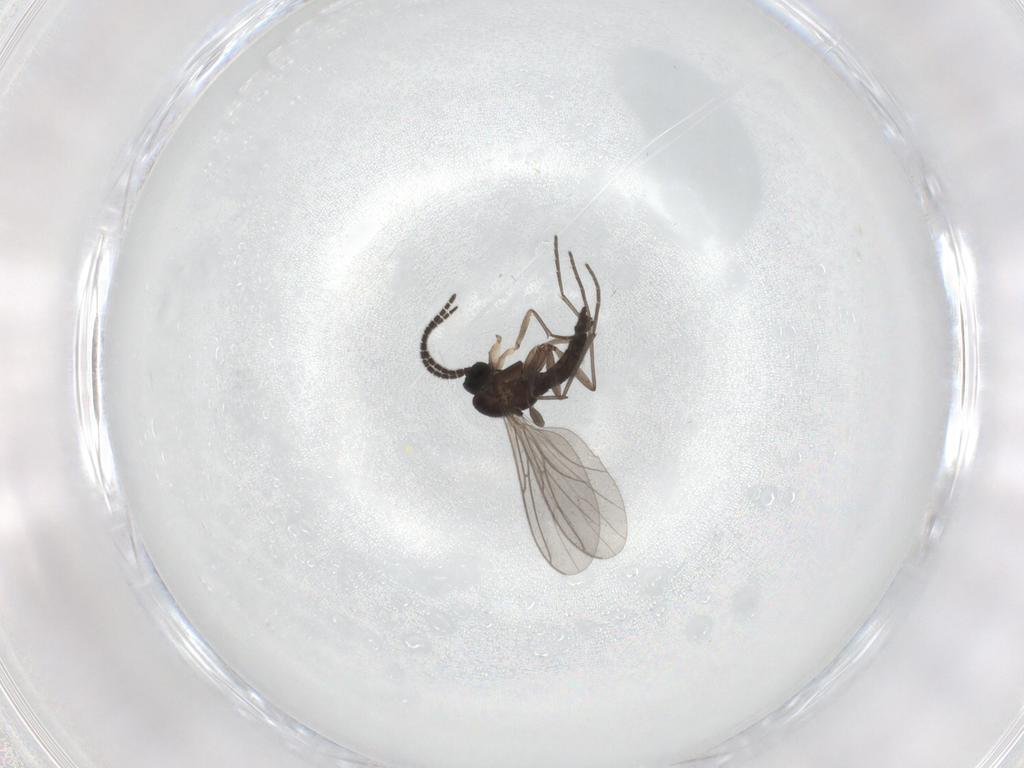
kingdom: Animalia
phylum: Arthropoda
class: Insecta
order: Diptera
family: Sciaridae
